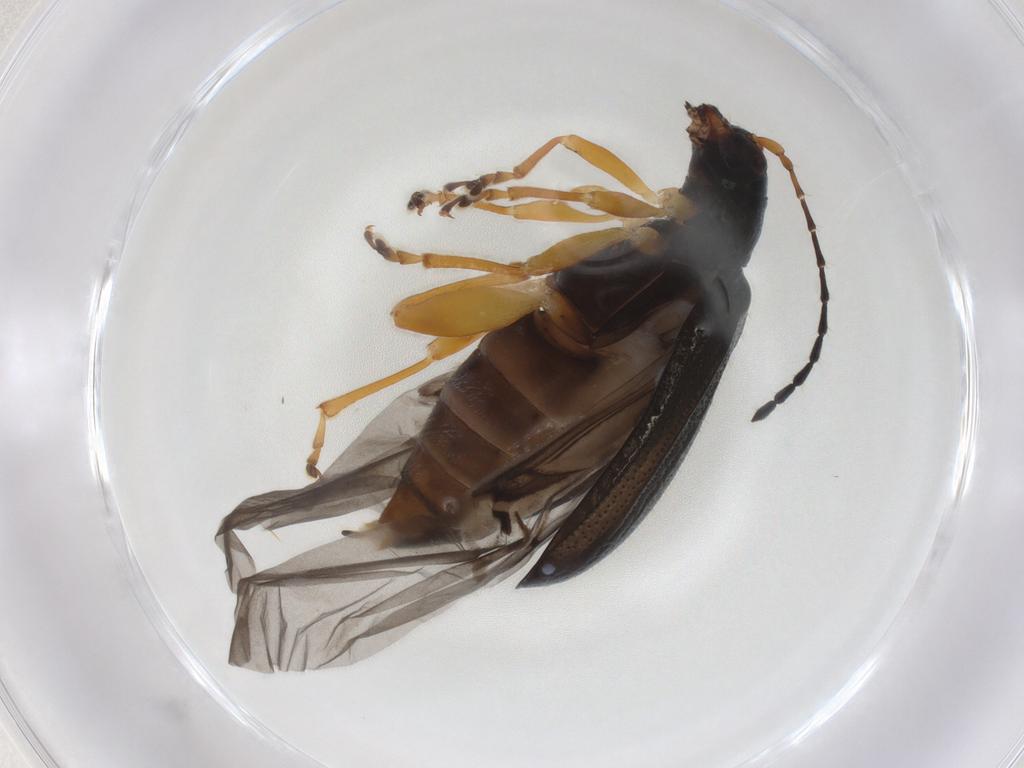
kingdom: Animalia
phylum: Arthropoda
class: Insecta
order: Coleoptera
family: Chrysomelidae
